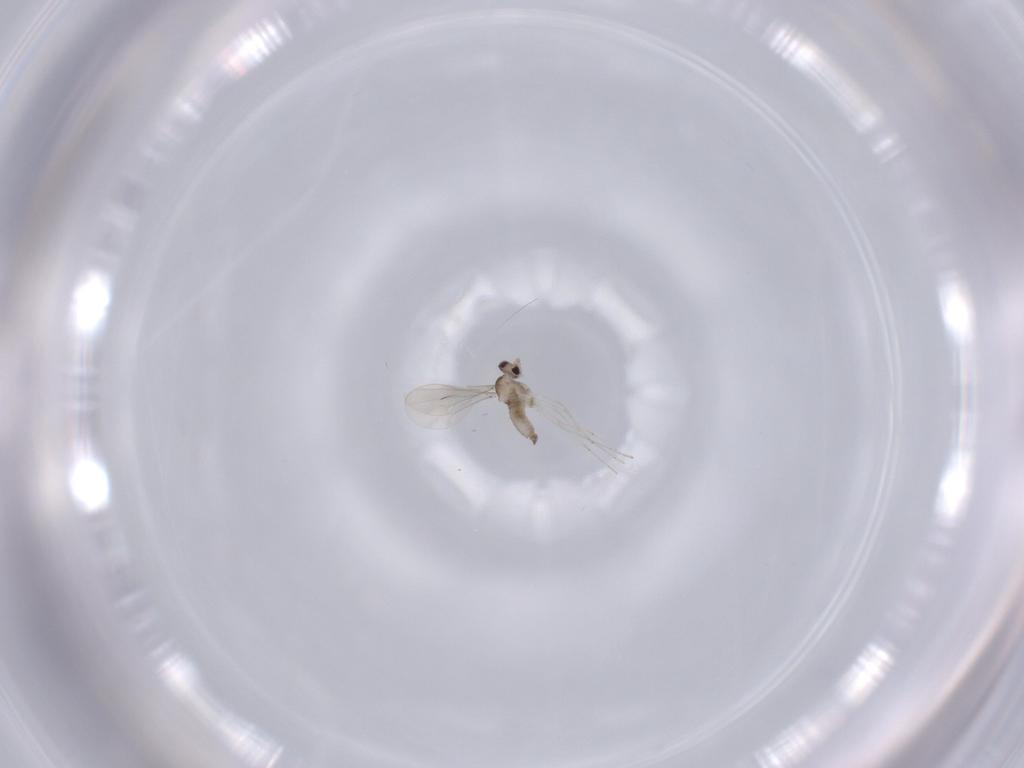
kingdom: Animalia
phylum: Arthropoda
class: Insecta
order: Diptera
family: Cecidomyiidae
